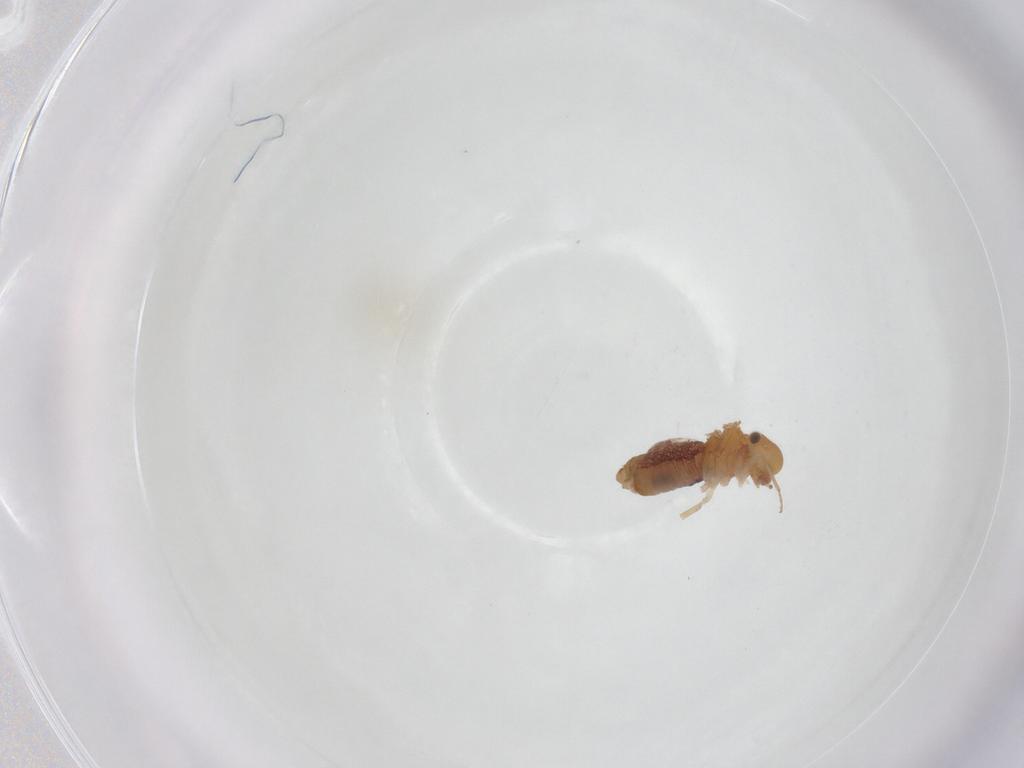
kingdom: Animalia
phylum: Arthropoda
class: Insecta
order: Psocodea
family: Lachesillidae
